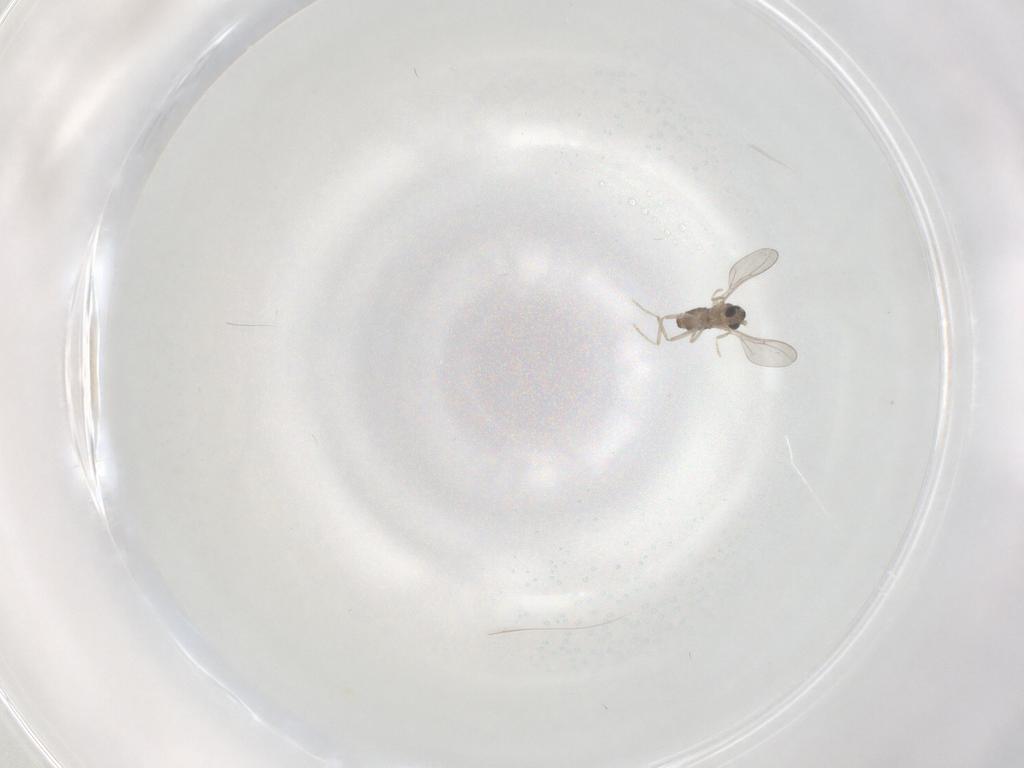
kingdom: Animalia
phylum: Arthropoda
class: Insecta
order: Diptera
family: Cecidomyiidae
